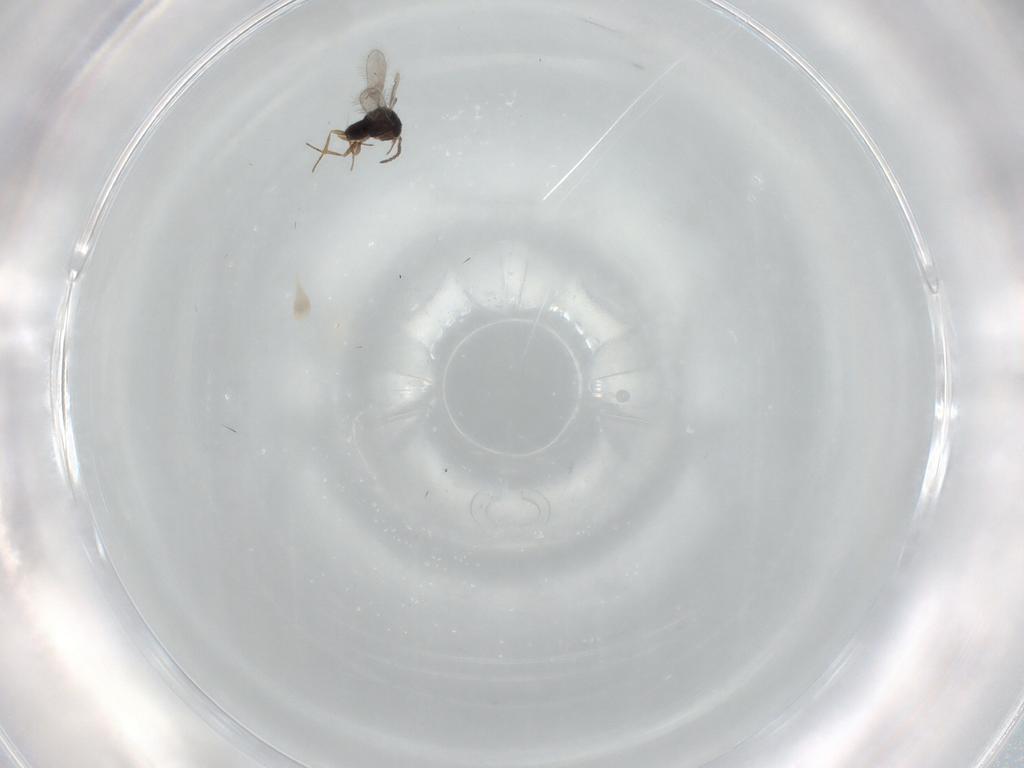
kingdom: Animalia
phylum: Arthropoda
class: Insecta
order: Hymenoptera
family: Scelionidae
